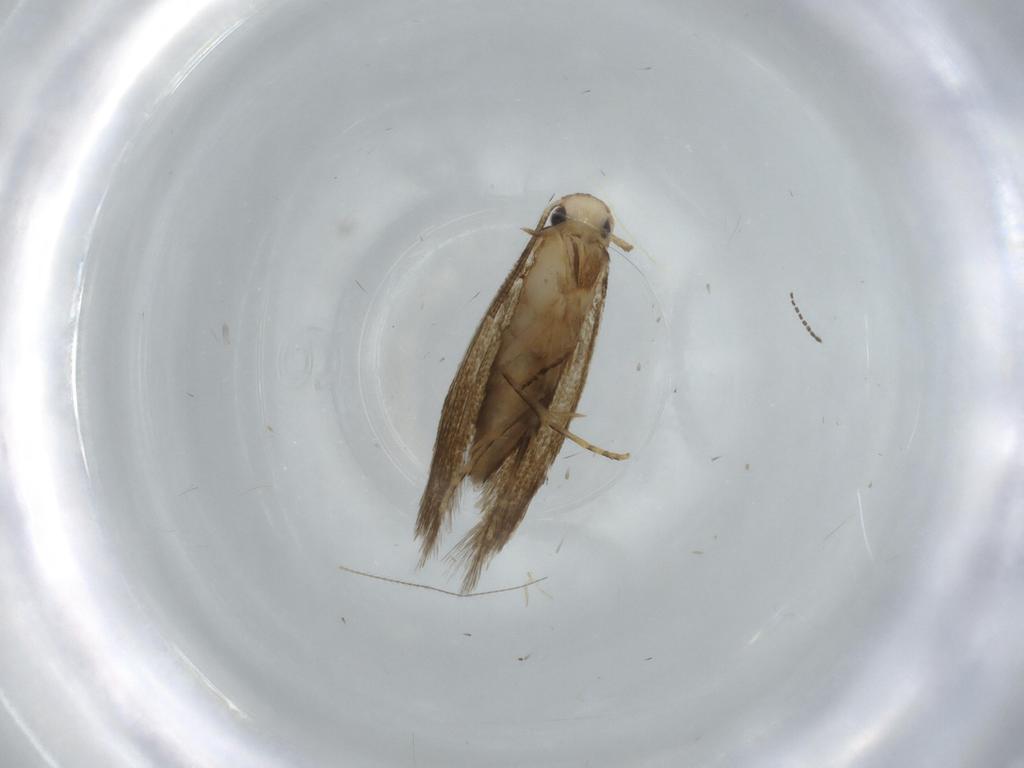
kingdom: Animalia
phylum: Arthropoda
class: Insecta
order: Lepidoptera
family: Tineidae
